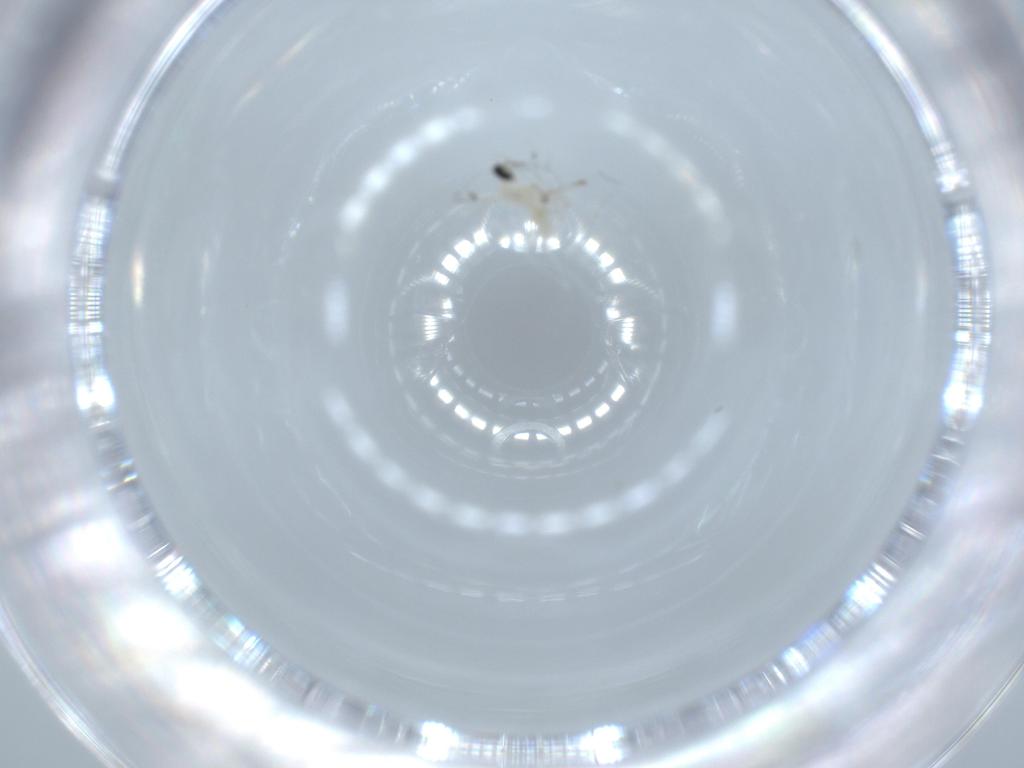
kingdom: Animalia
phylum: Arthropoda
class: Insecta
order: Diptera
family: Cecidomyiidae
